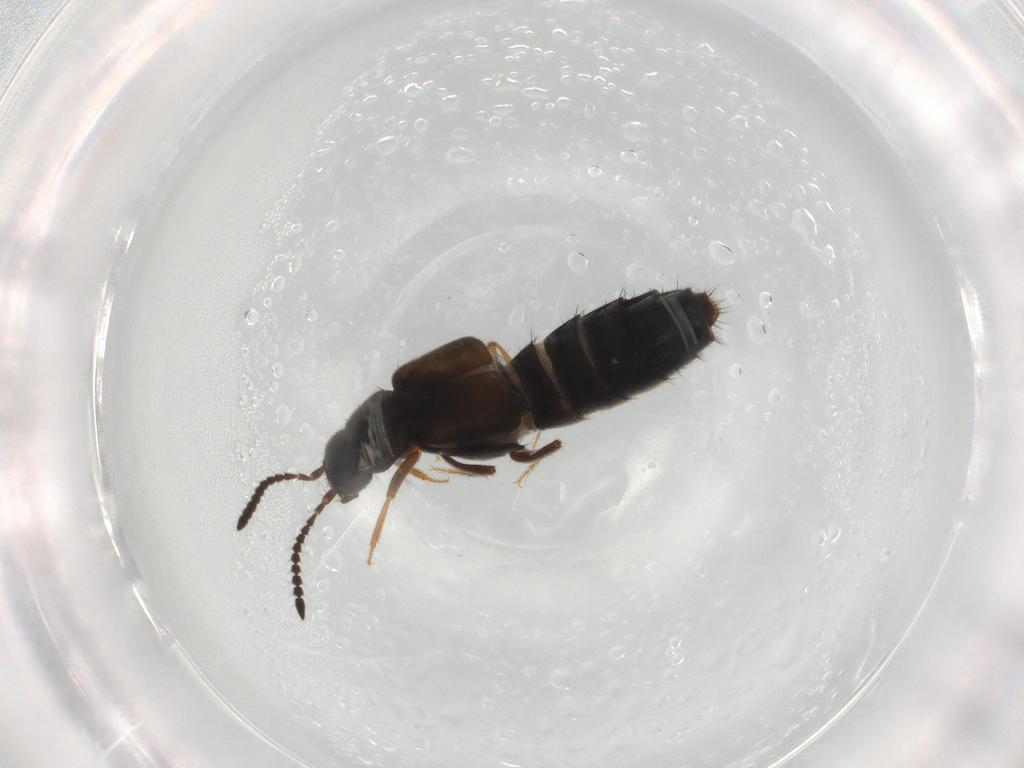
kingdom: Animalia
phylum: Arthropoda
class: Insecta
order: Coleoptera
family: Staphylinidae
